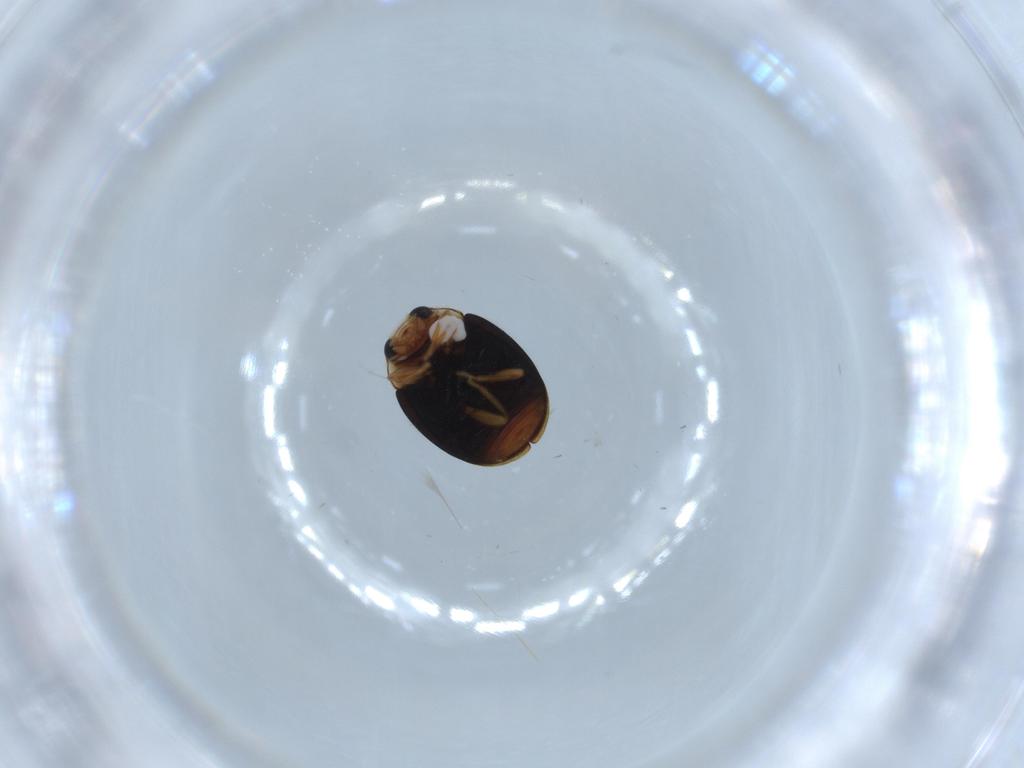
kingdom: Animalia
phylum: Arthropoda
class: Insecta
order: Coleoptera
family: Coccinellidae
